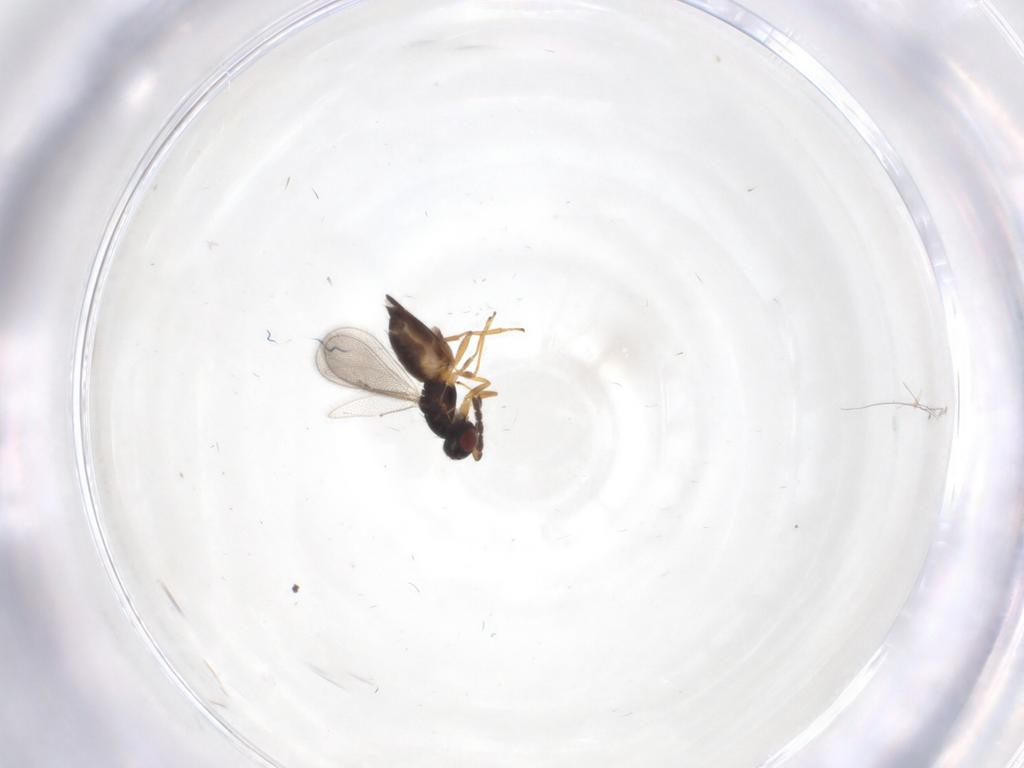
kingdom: Animalia
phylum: Arthropoda
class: Insecta
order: Hymenoptera
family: Eulophidae
